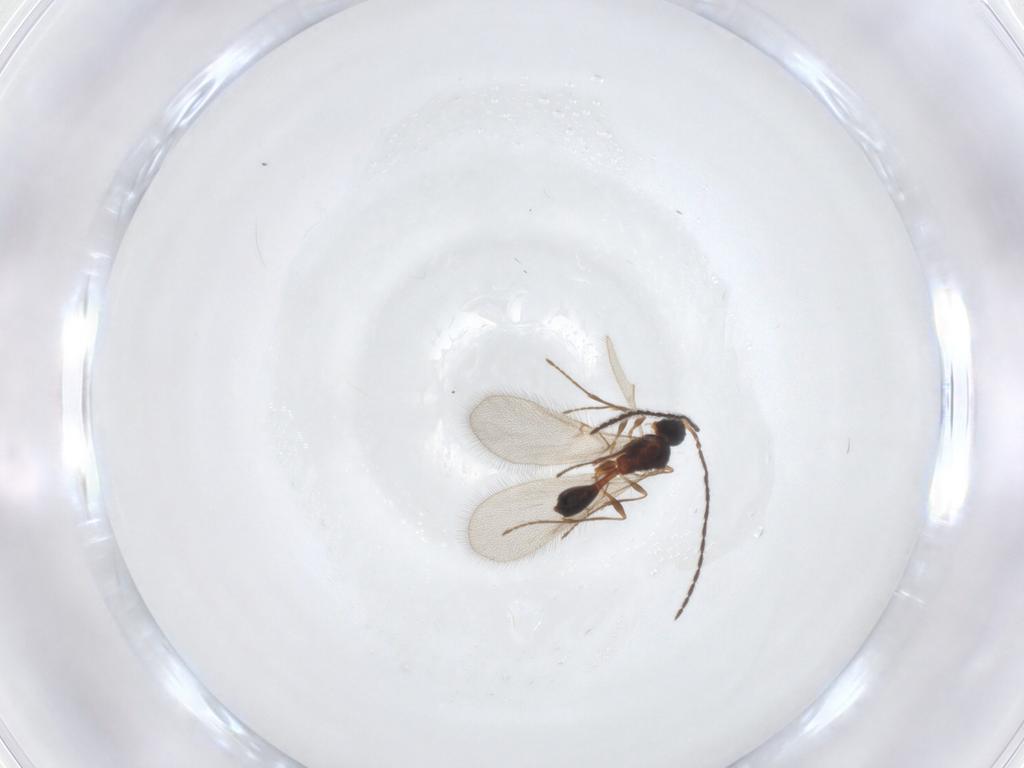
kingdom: Animalia
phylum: Arthropoda
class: Insecta
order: Hymenoptera
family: Diapriidae
